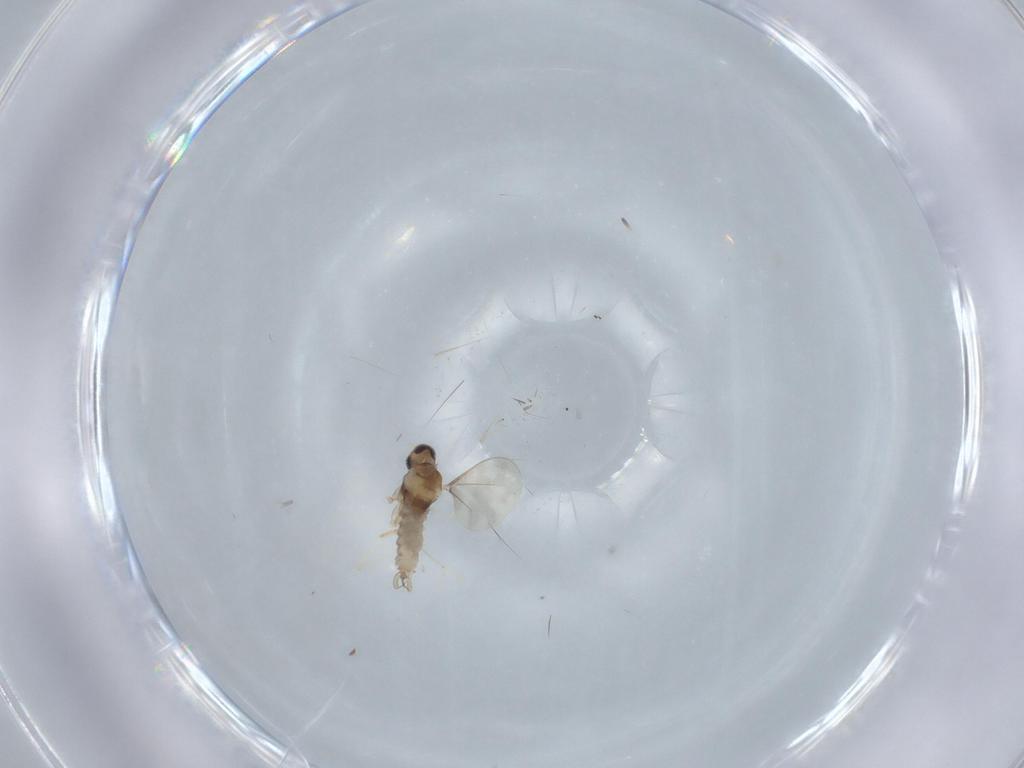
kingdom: Animalia
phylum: Arthropoda
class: Insecta
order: Diptera
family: Cecidomyiidae
